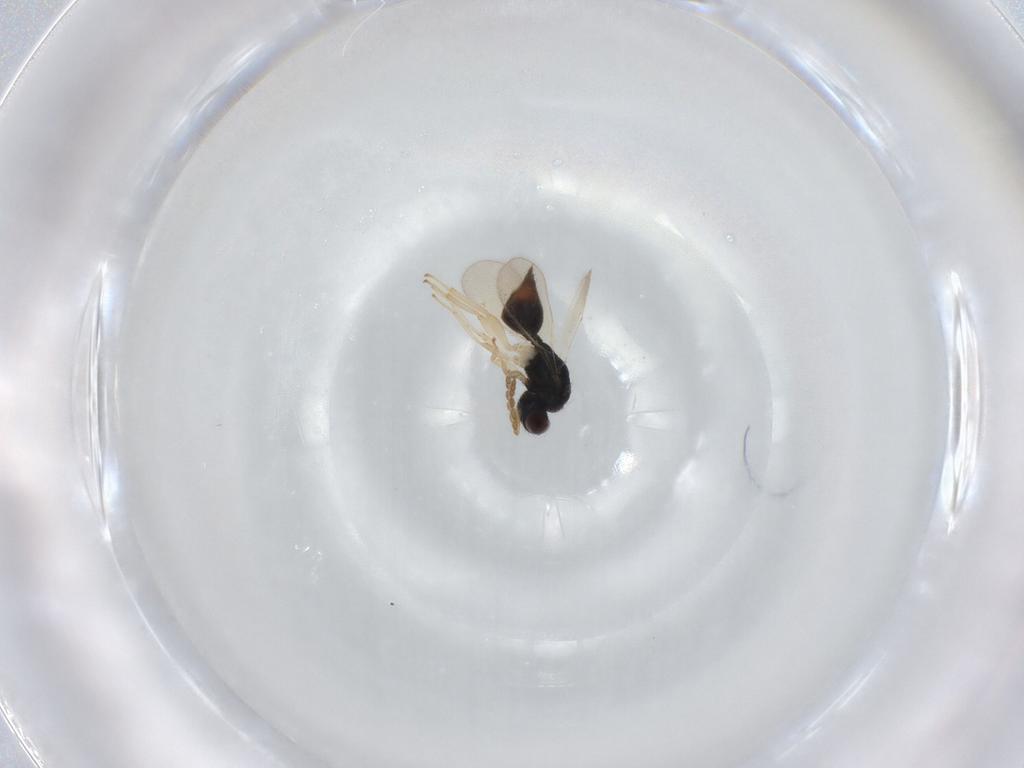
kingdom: Animalia
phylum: Arthropoda
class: Insecta
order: Hymenoptera
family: Eulophidae
